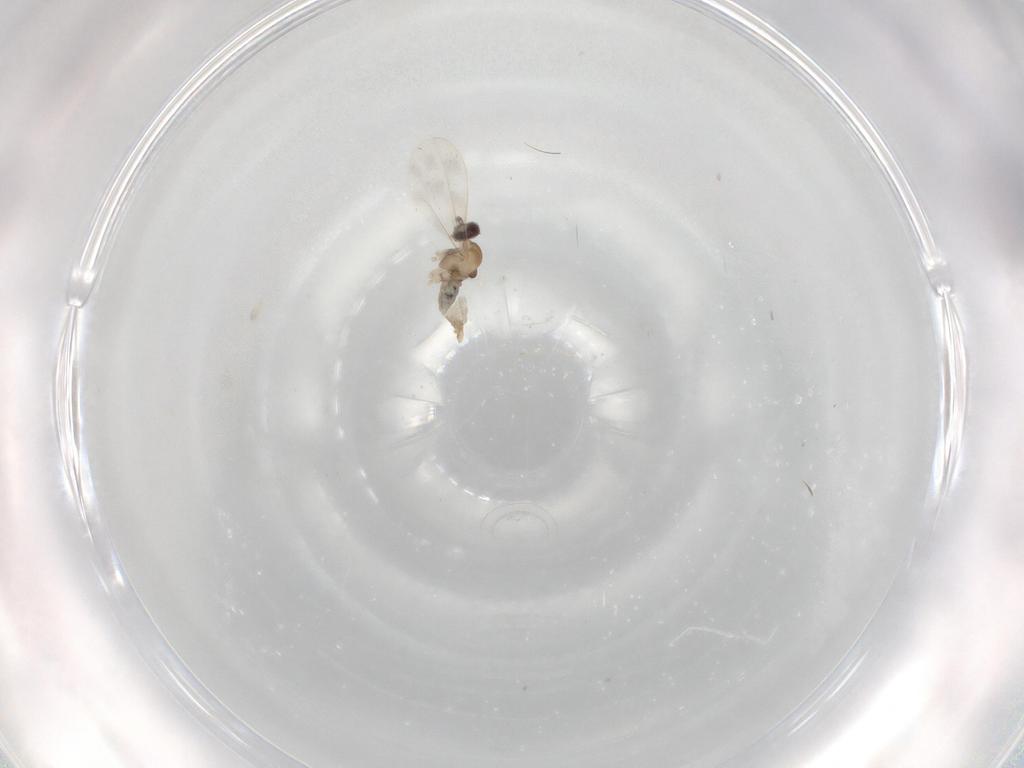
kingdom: Animalia
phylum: Arthropoda
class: Insecta
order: Diptera
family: Cecidomyiidae
